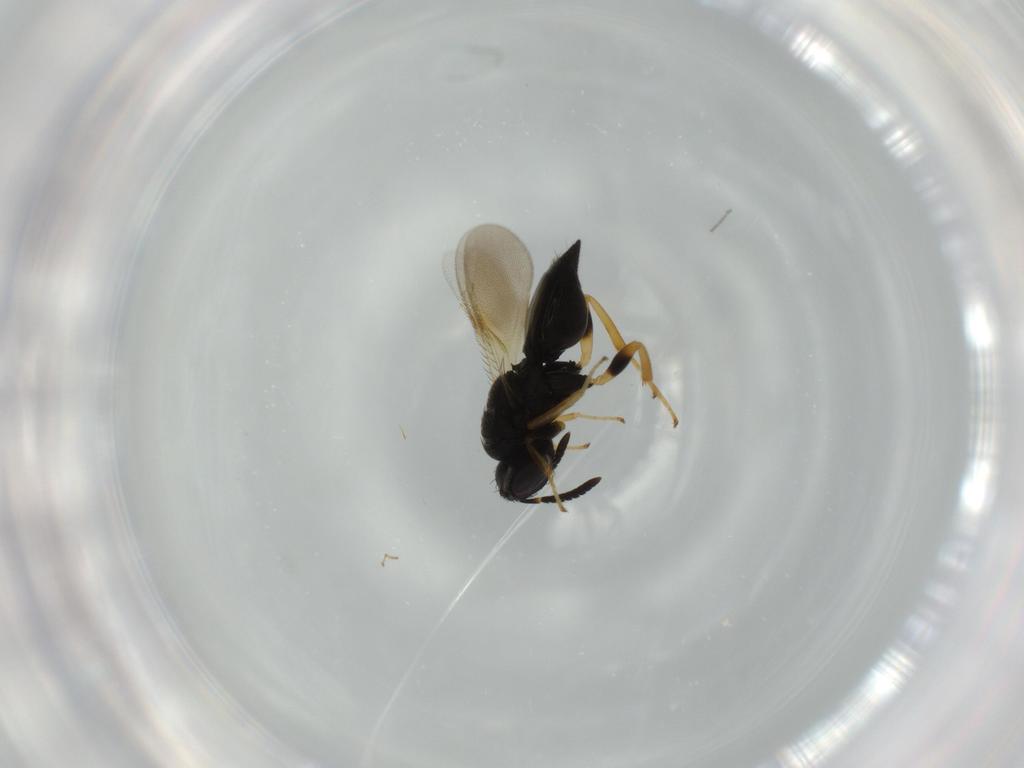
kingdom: Animalia
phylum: Arthropoda
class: Insecta
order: Hymenoptera
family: Pteromalidae
